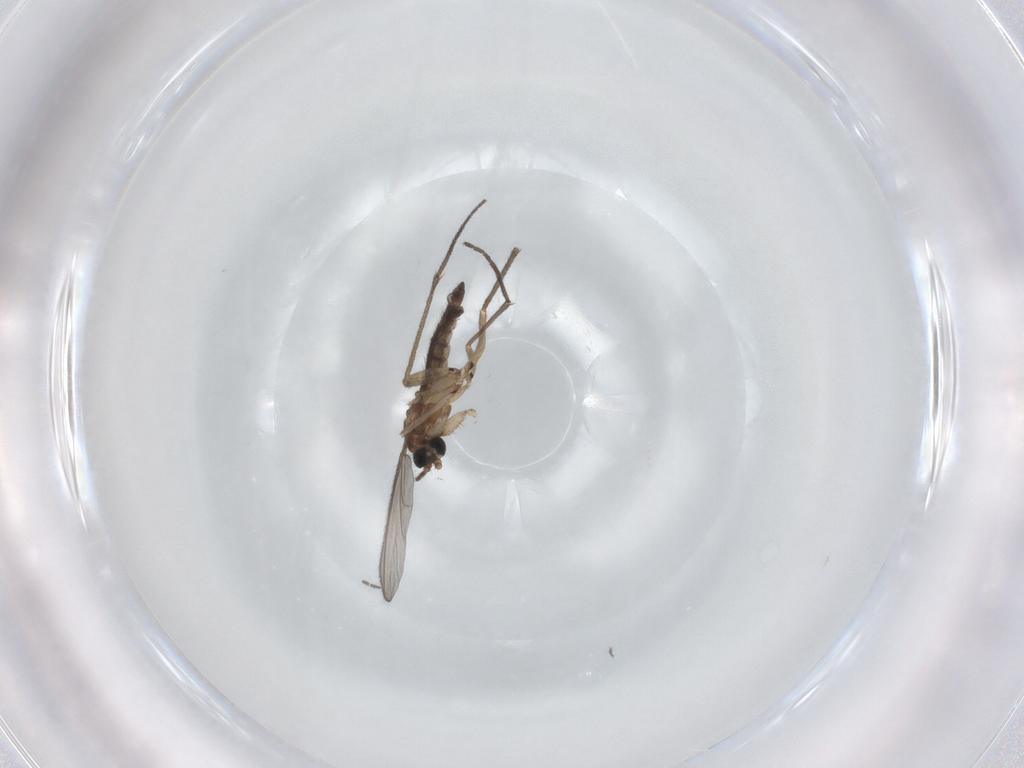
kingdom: Animalia
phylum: Arthropoda
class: Insecta
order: Diptera
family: Sciaridae
